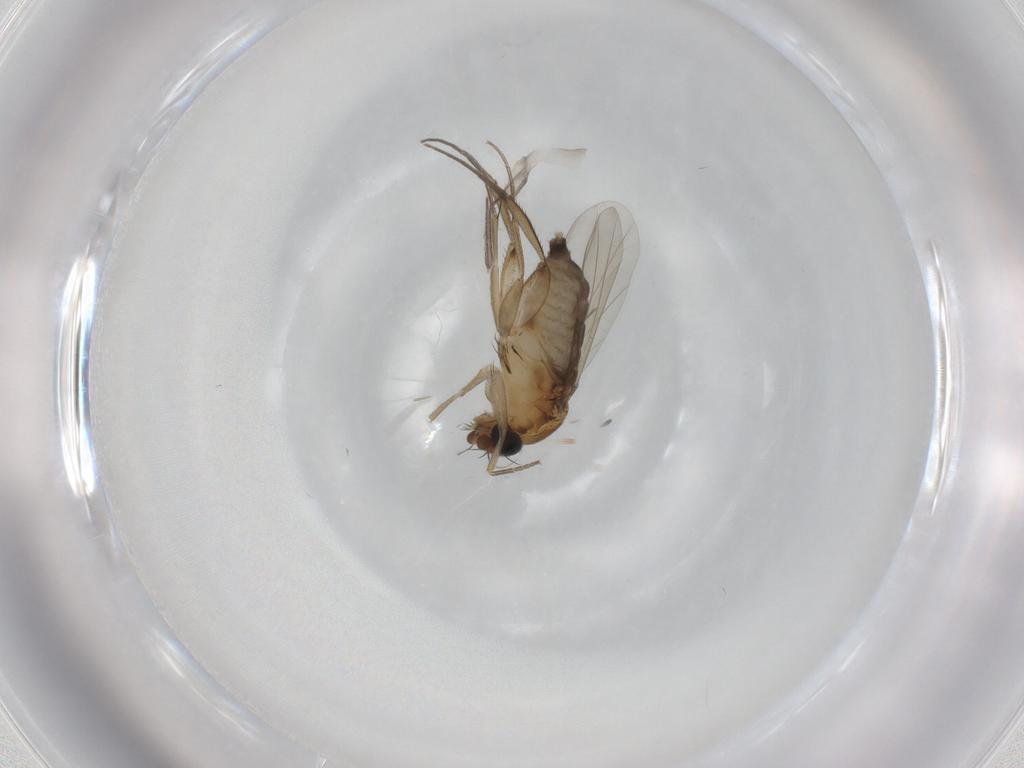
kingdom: Animalia
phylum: Arthropoda
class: Insecta
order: Diptera
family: Phoridae
